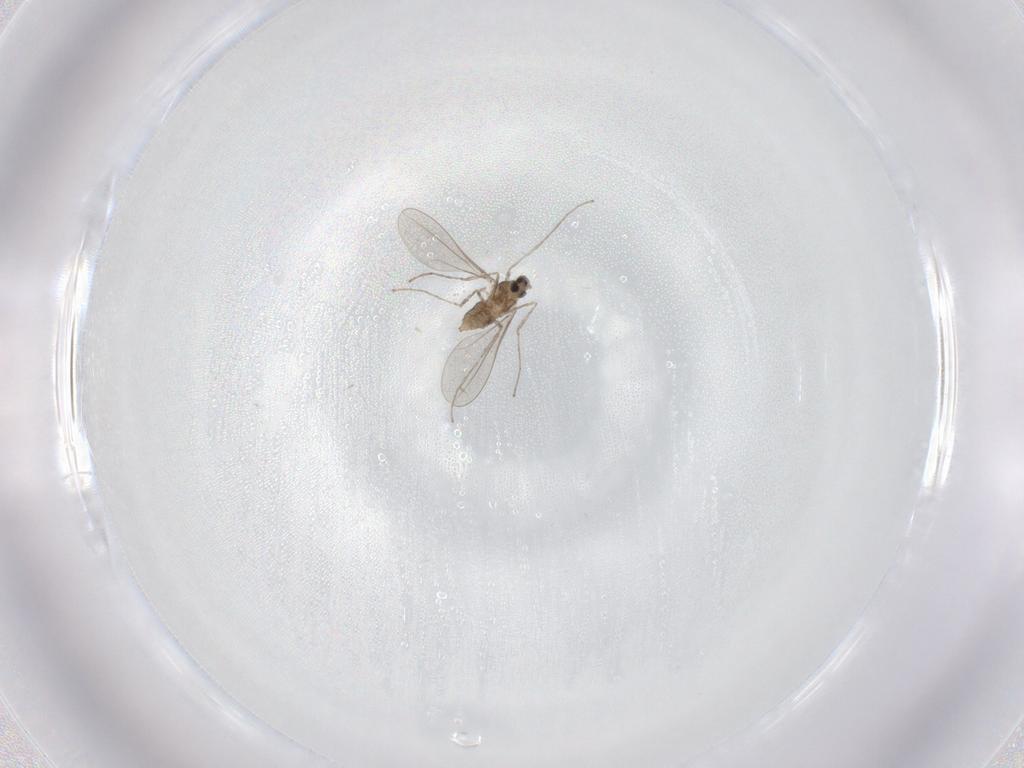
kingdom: Animalia
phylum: Arthropoda
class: Insecta
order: Diptera
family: Cecidomyiidae
